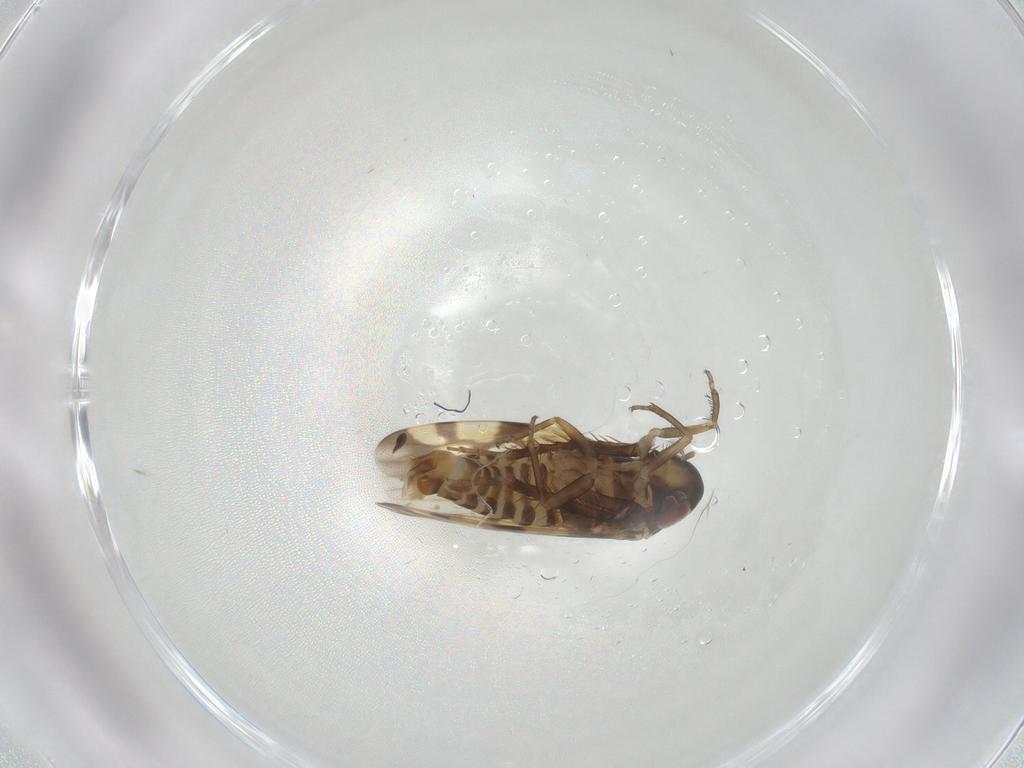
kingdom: Animalia
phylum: Arthropoda
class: Insecta
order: Hemiptera
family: Cicadellidae
